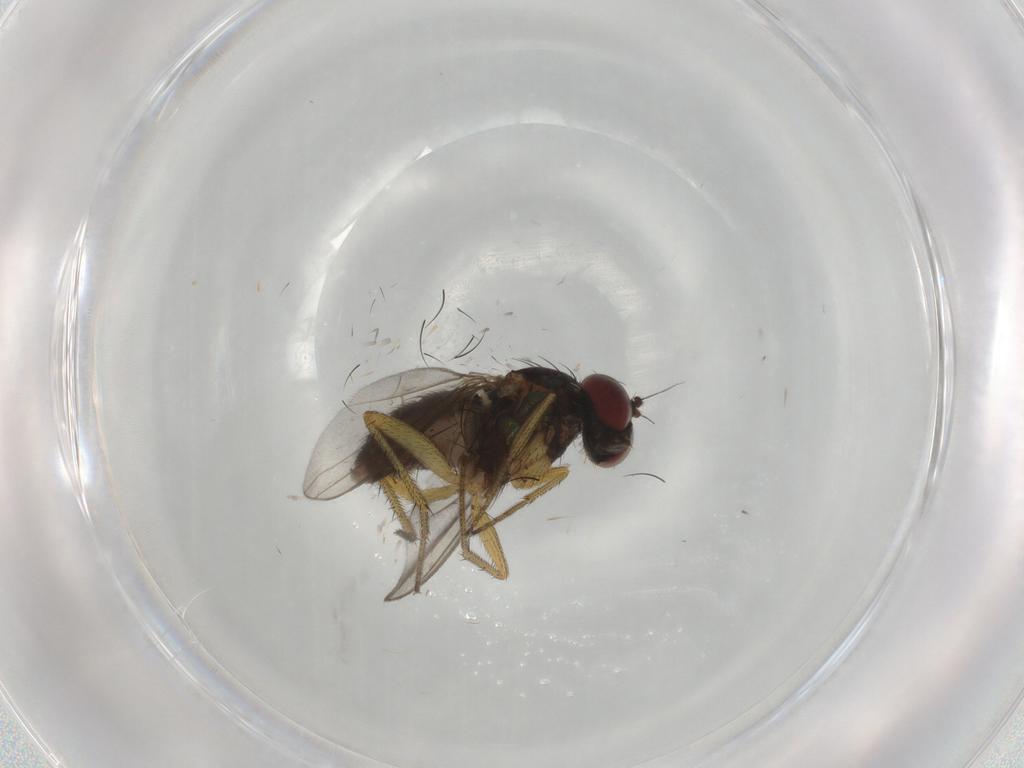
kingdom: Animalia
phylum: Arthropoda
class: Insecta
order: Diptera
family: Dolichopodidae
